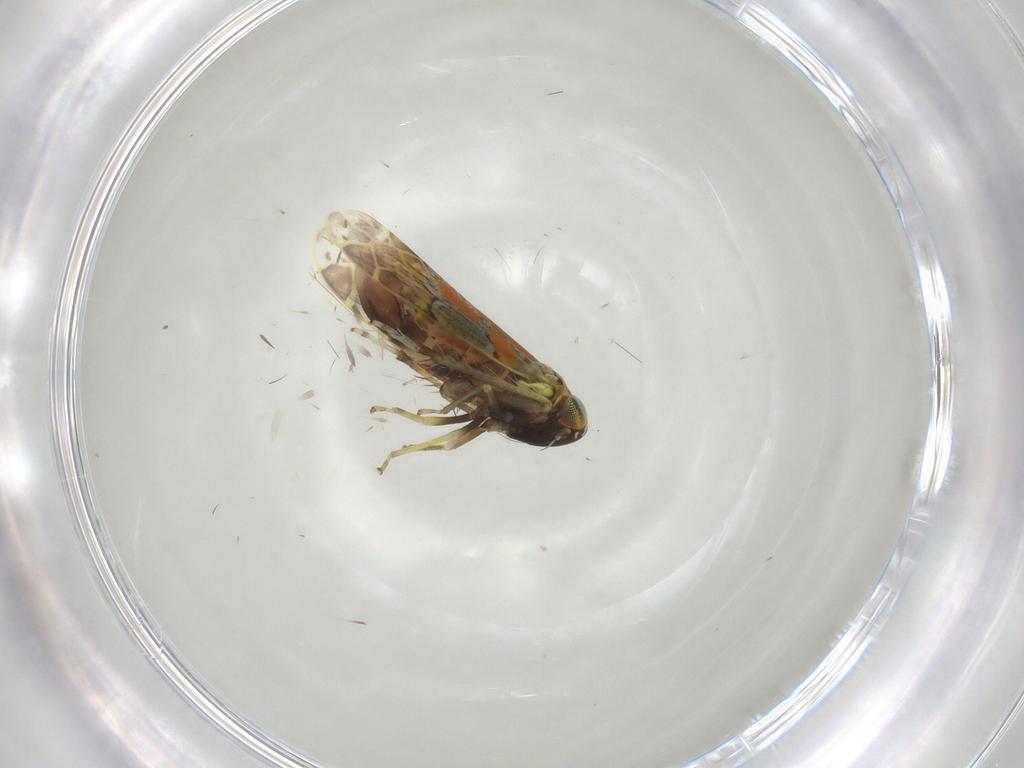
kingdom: Animalia
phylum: Arthropoda
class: Insecta
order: Hemiptera
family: Cicadellidae
